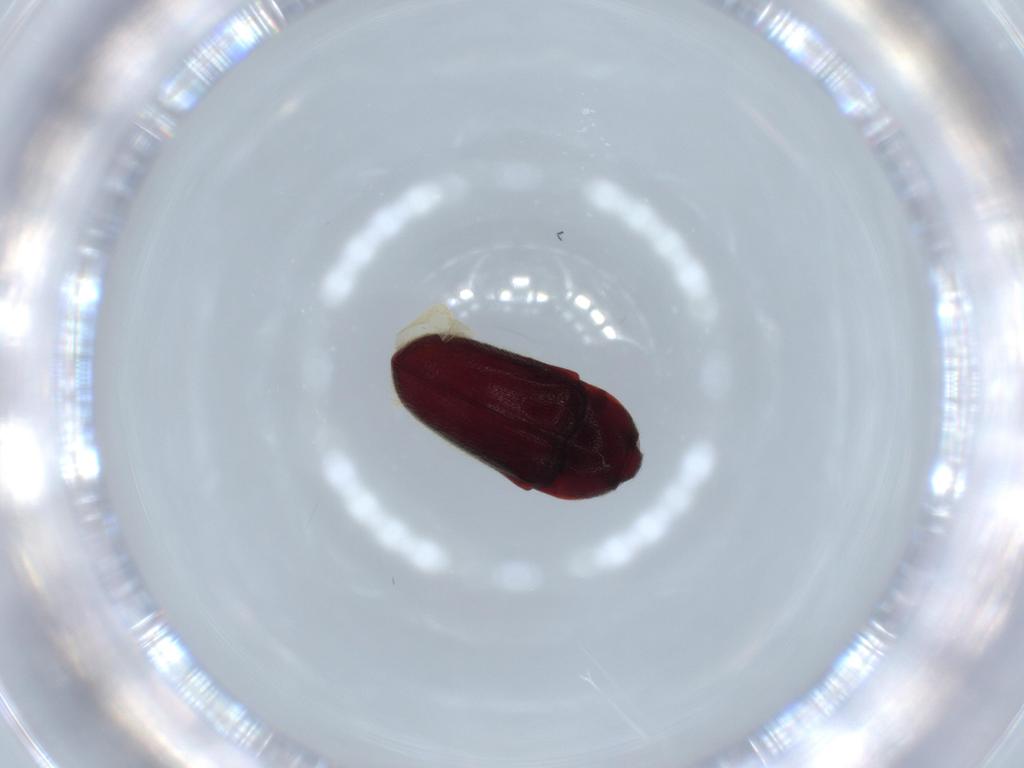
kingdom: Animalia
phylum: Arthropoda
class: Insecta
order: Coleoptera
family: Throscidae
